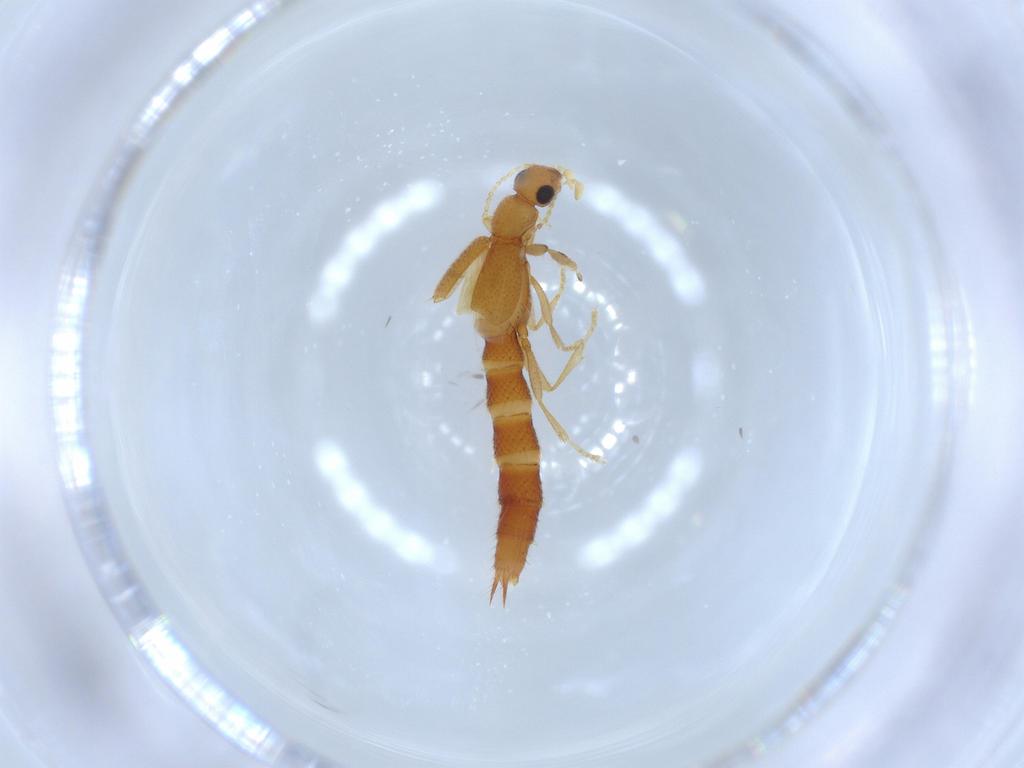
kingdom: Animalia
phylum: Arthropoda
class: Insecta
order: Coleoptera
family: Staphylinidae
